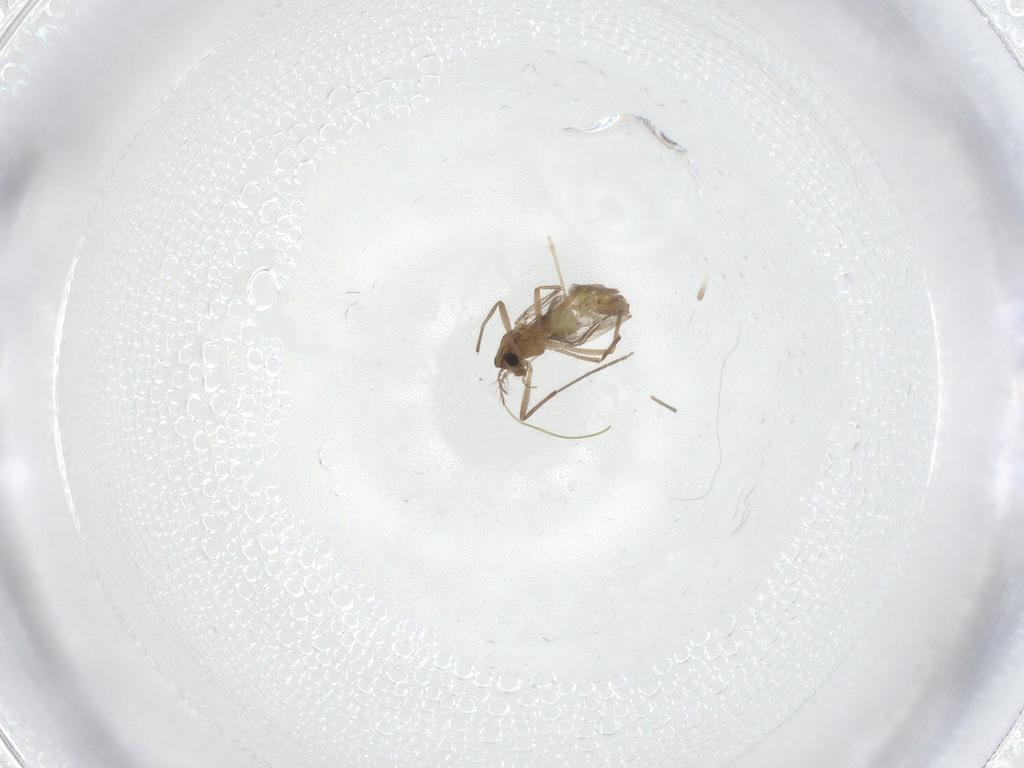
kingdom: Animalia
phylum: Arthropoda
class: Insecta
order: Diptera
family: Chironomidae
